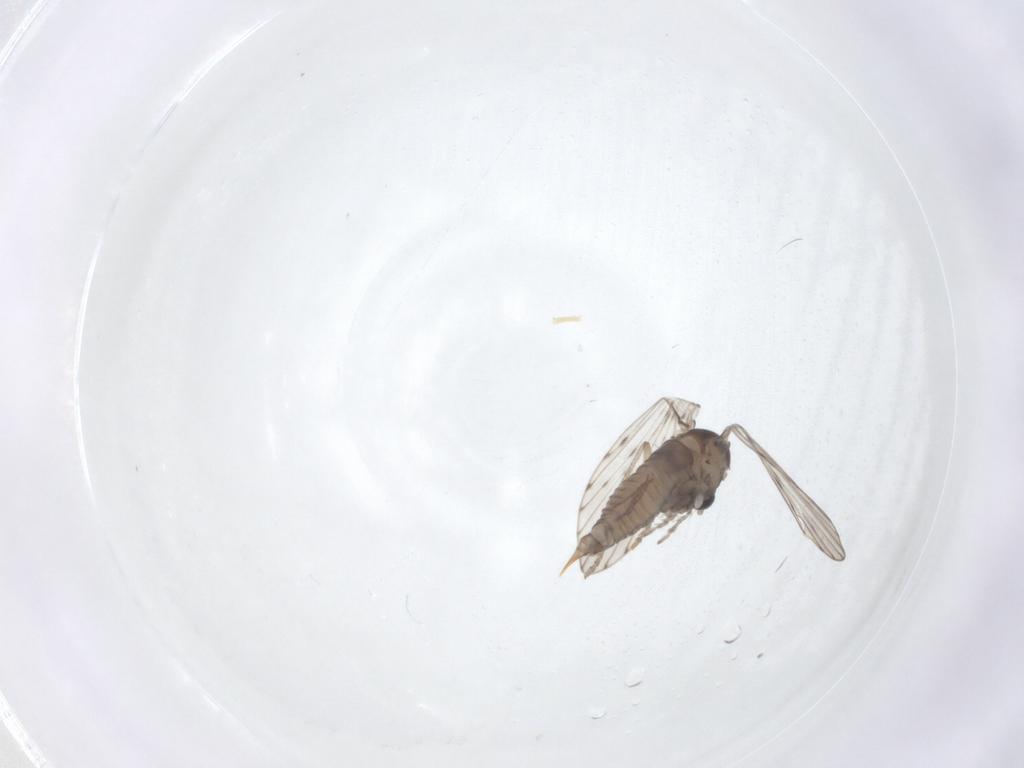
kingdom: Animalia
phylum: Arthropoda
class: Insecta
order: Diptera
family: Psychodidae
